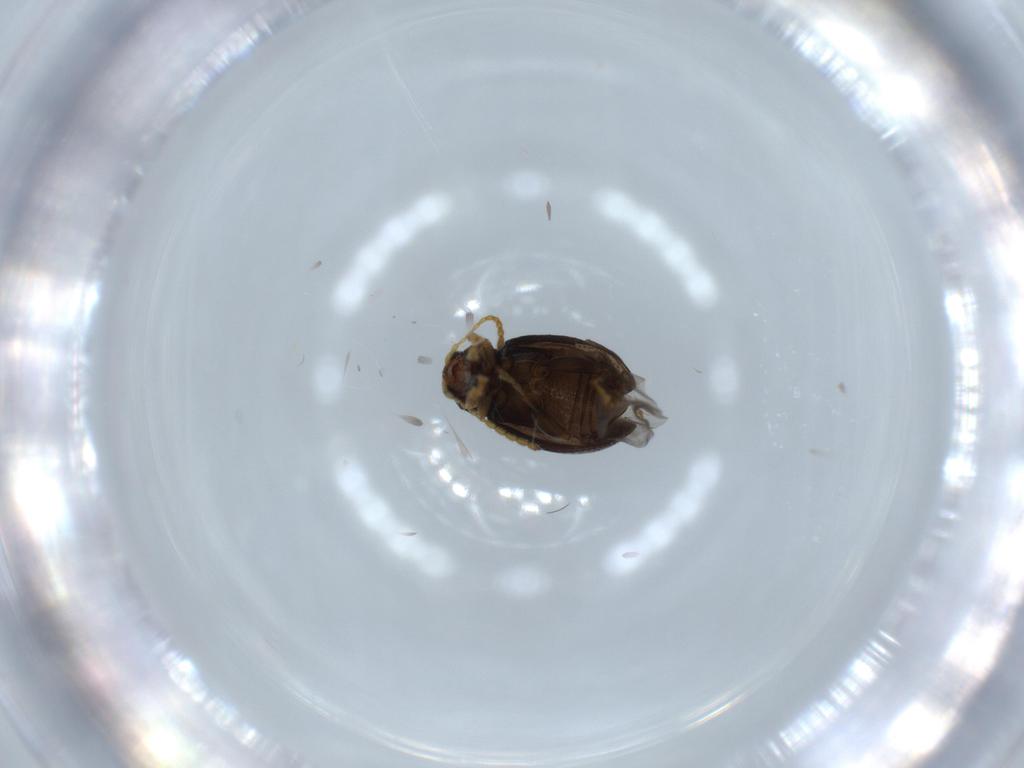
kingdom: Animalia
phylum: Arthropoda
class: Insecta
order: Coleoptera
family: Chrysomelidae
